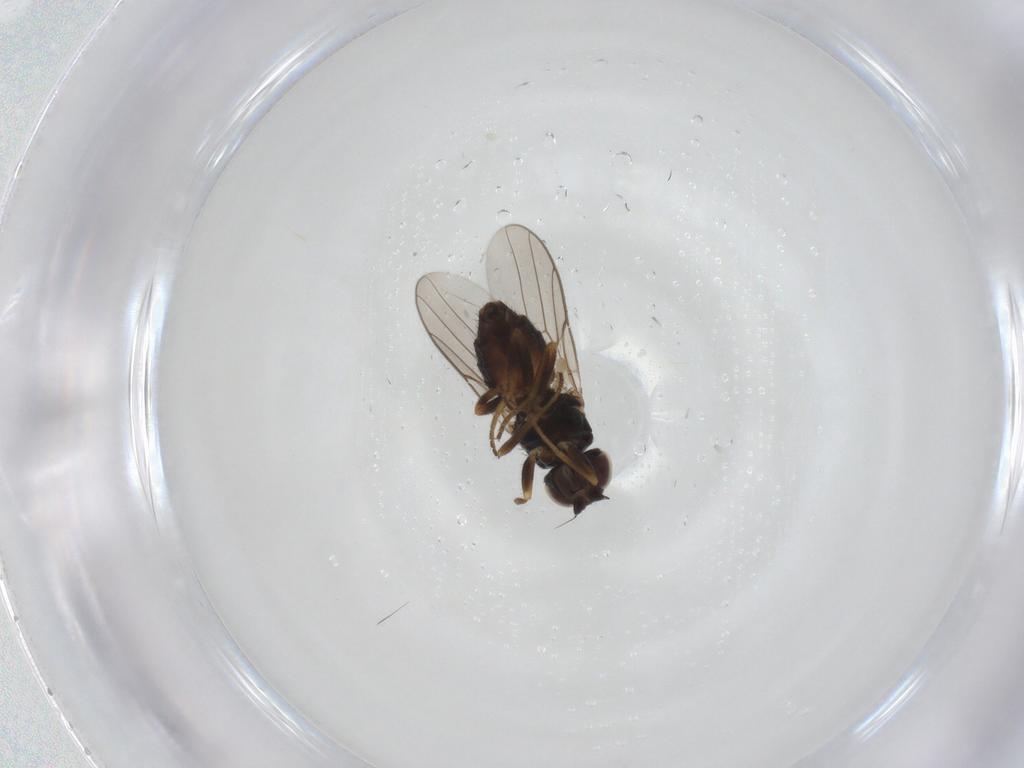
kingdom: Animalia
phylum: Arthropoda
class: Insecta
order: Diptera
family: Chloropidae
